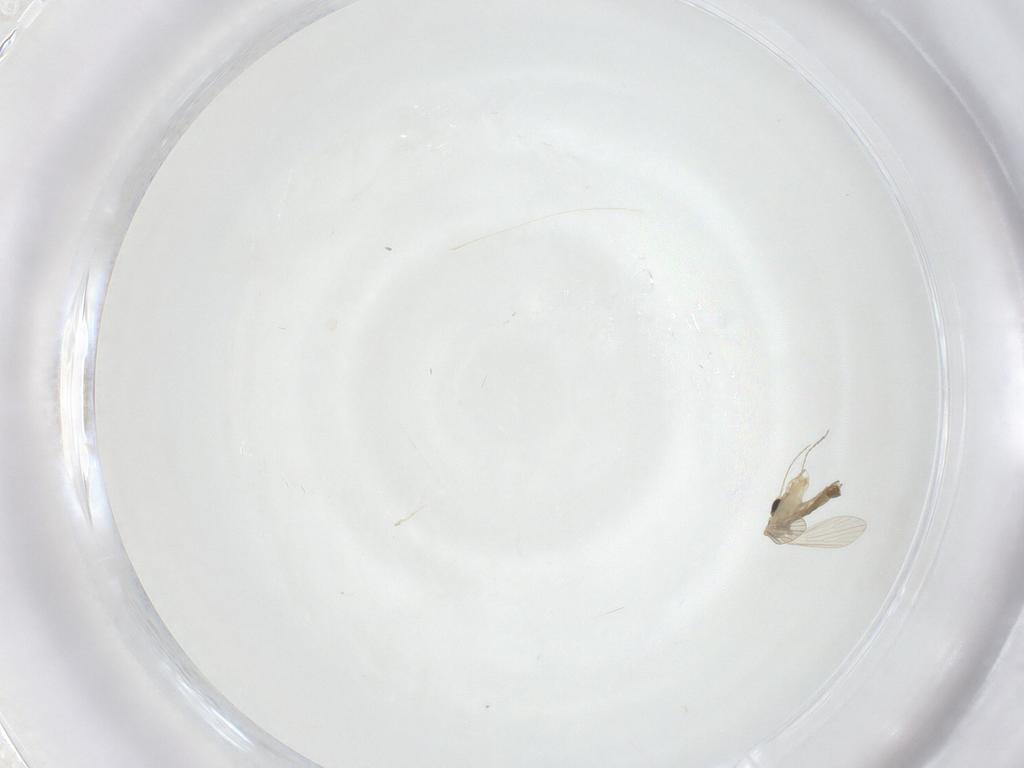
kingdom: Animalia
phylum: Arthropoda
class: Insecta
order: Diptera
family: Psychodidae
